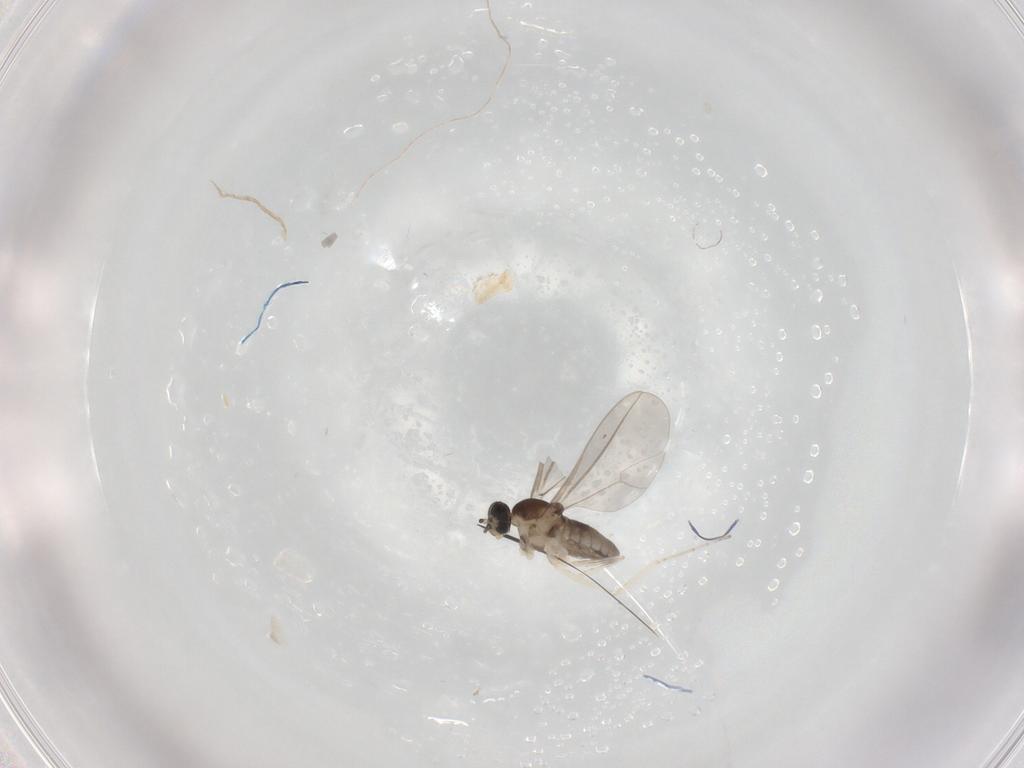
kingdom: Animalia
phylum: Arthropoda
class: Insecta
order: Diptera
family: Cecidomyiidae
